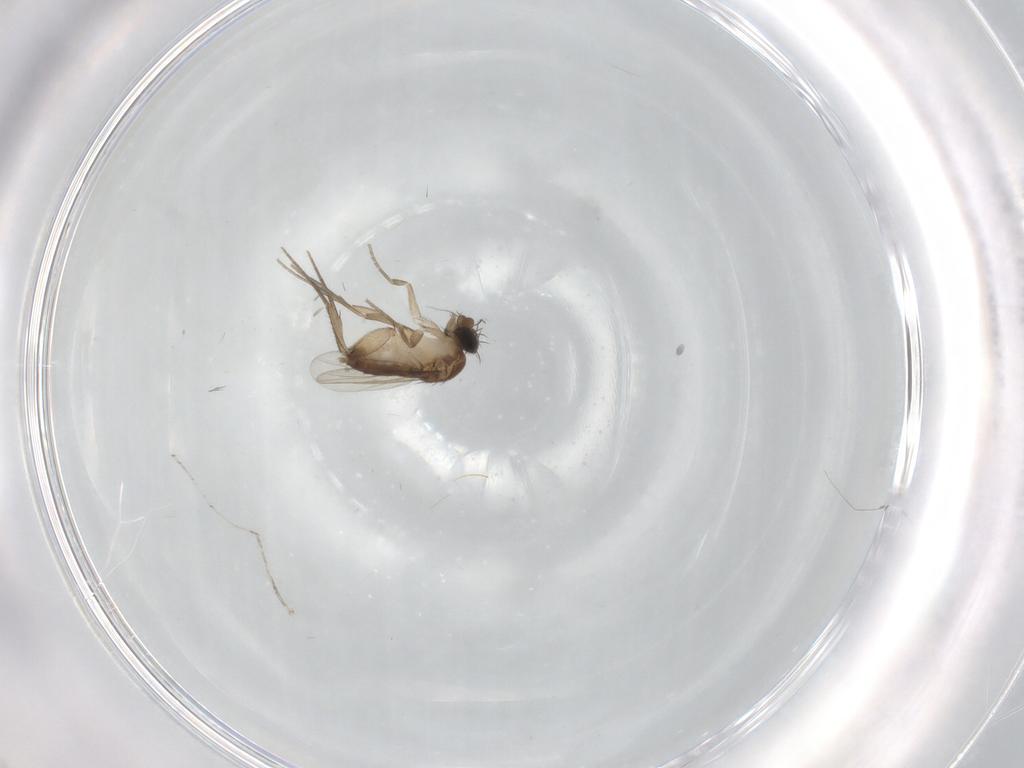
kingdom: Animalia
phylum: Arthropoda
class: Insecta
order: Diptera
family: Phoridae
